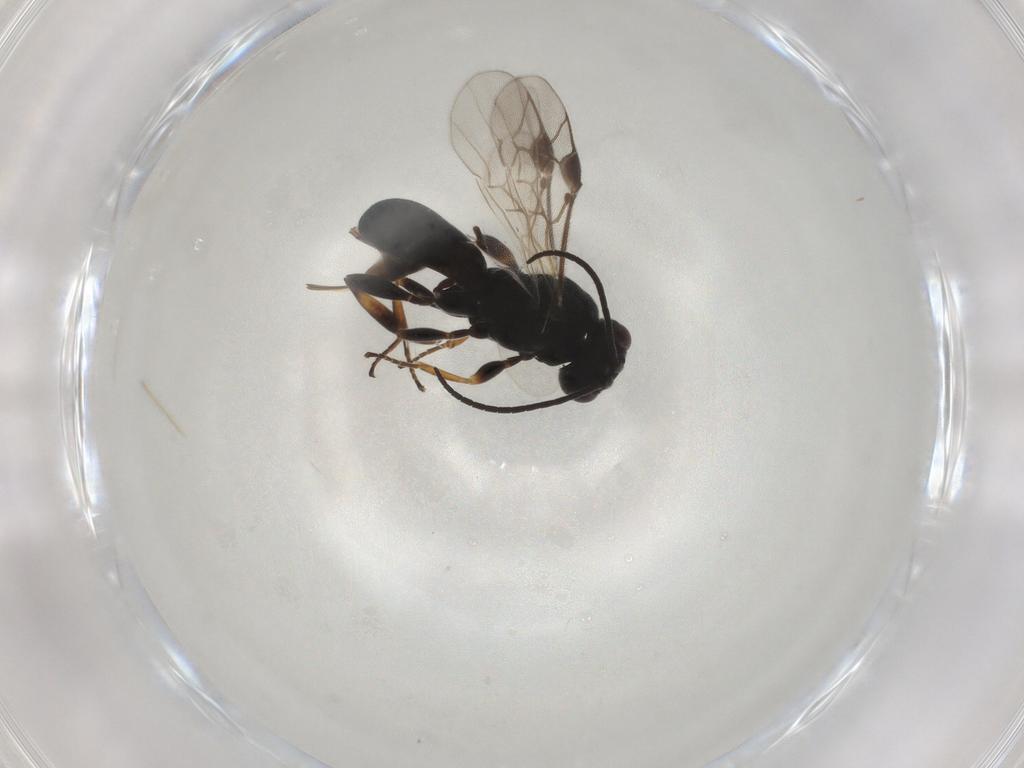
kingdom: Animalia
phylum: Arthropoda
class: Insecta
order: Hymenoptera
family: Braconidae
